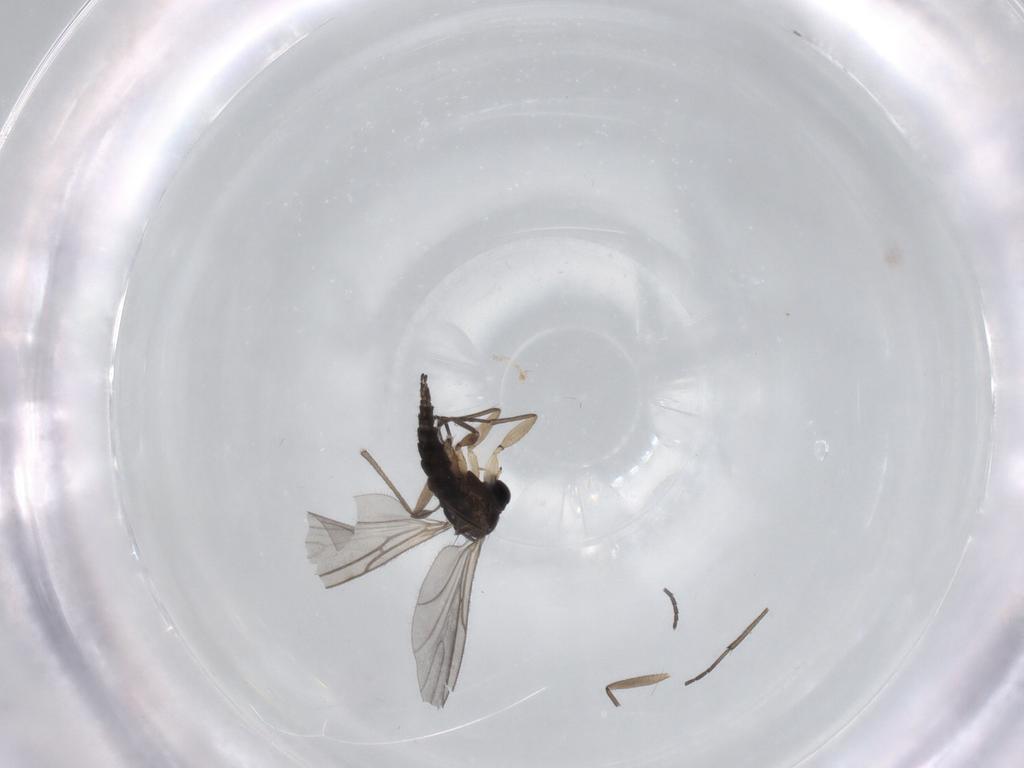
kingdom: Animalia
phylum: Arthropoda
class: Insecta
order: Diptera
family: Sciaridae
